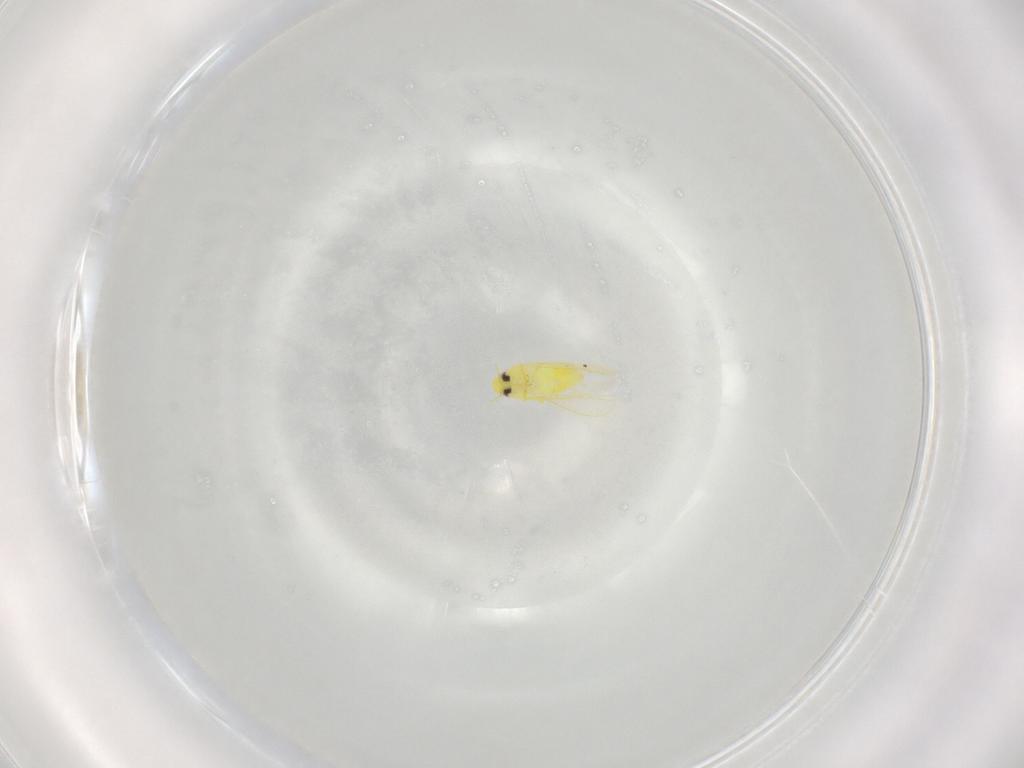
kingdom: Animalia
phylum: Arthropoda
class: Insecta
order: Hemiptera
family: Aleyrodidae
